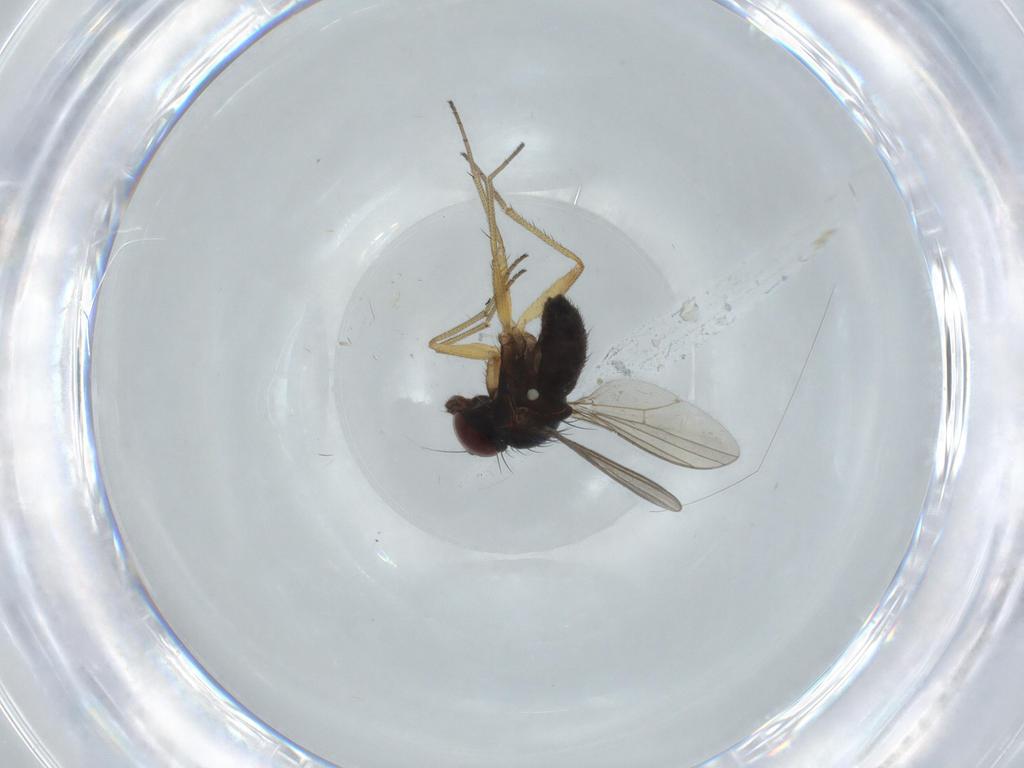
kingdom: Animalia
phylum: Arthropoda
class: Insecta
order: Diptera
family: Dolichopodidae
